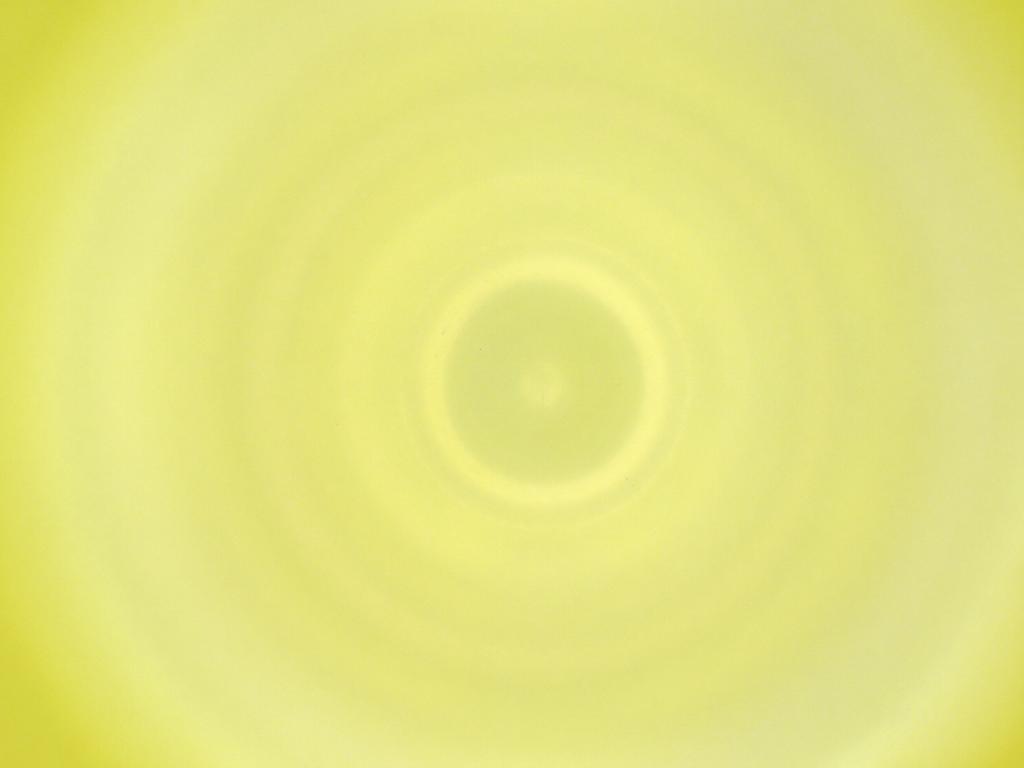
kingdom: Animalia
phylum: Arthropoda
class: Insecta
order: Diptera
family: Cecidomyiidae
